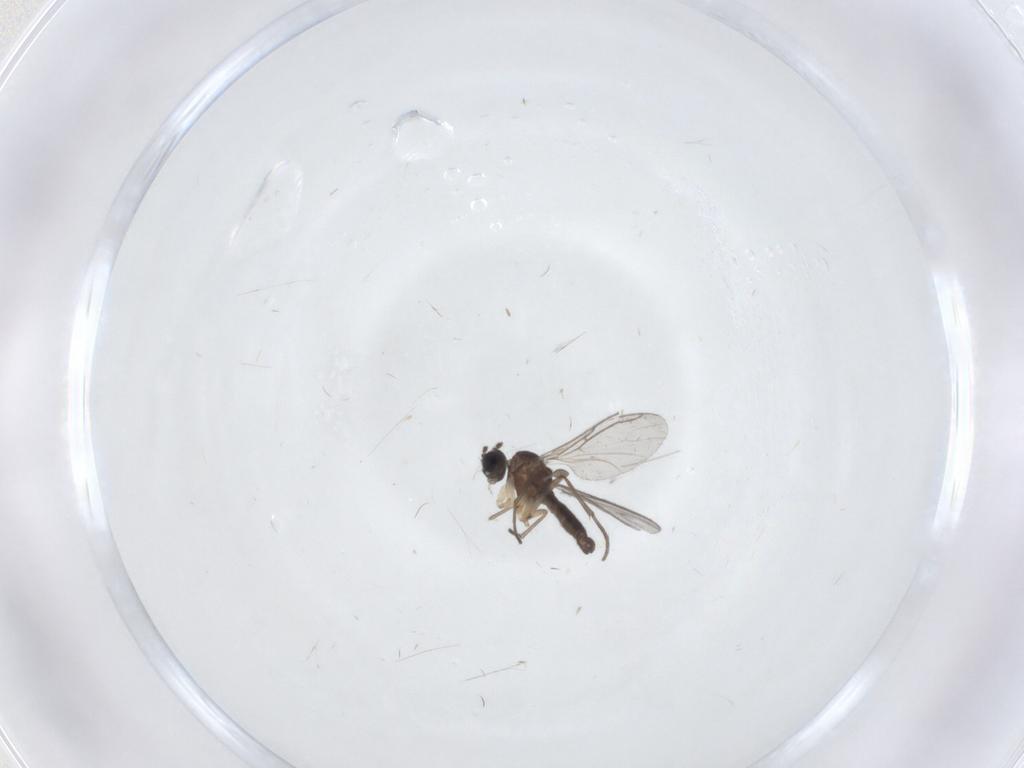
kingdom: Animalia
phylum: Arthropoda
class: Insecta
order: Diptera
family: Sciaridae
